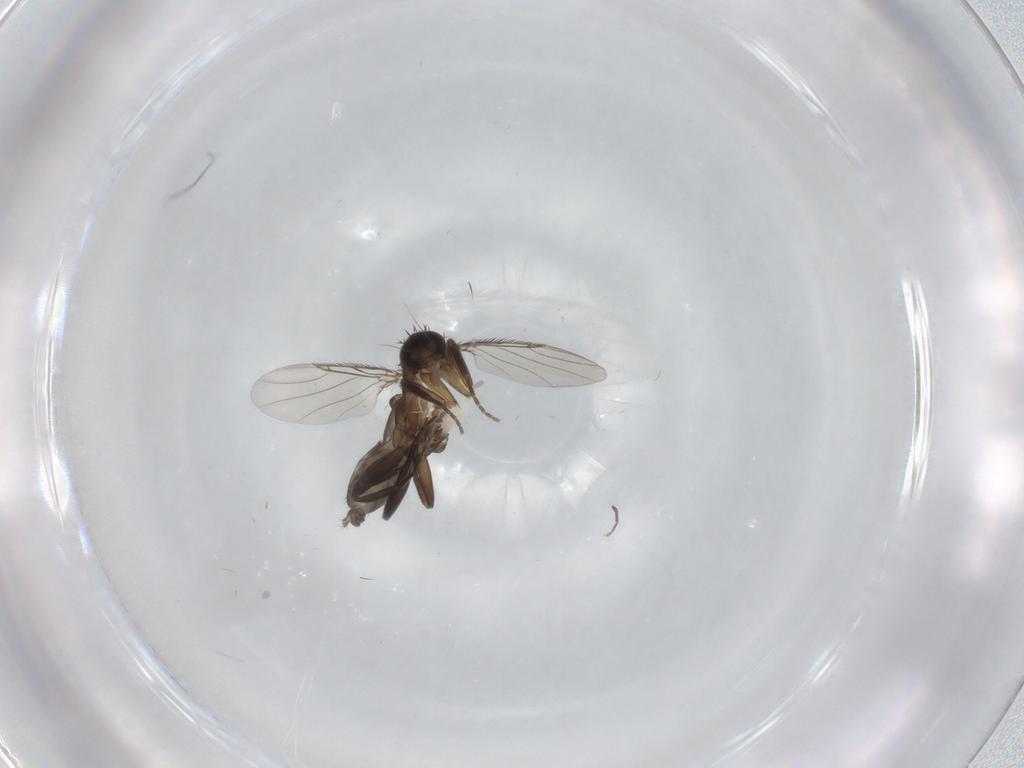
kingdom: Animalia
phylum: Arthropoda
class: Insecta
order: Diptera
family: Phoridae
